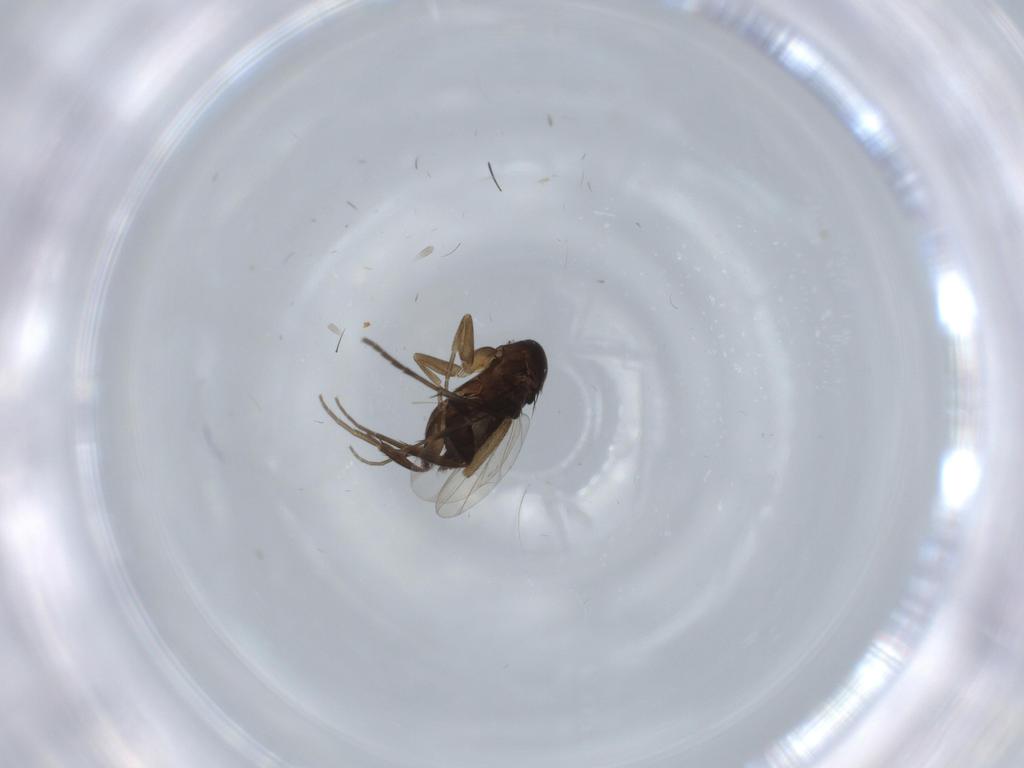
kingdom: Animalia
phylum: Arthropoda
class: Insecta
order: Diptera
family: Phoridae
